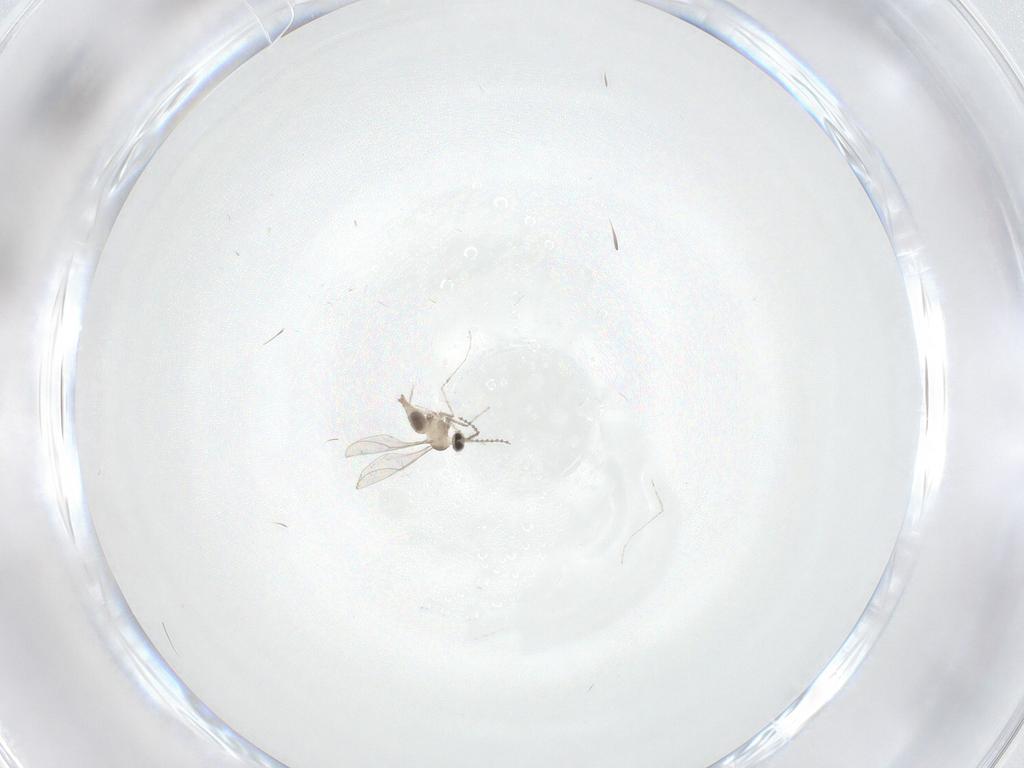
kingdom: Animalia
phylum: Arthropoda
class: Insecta
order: Diptera
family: Cecidomyiidae
